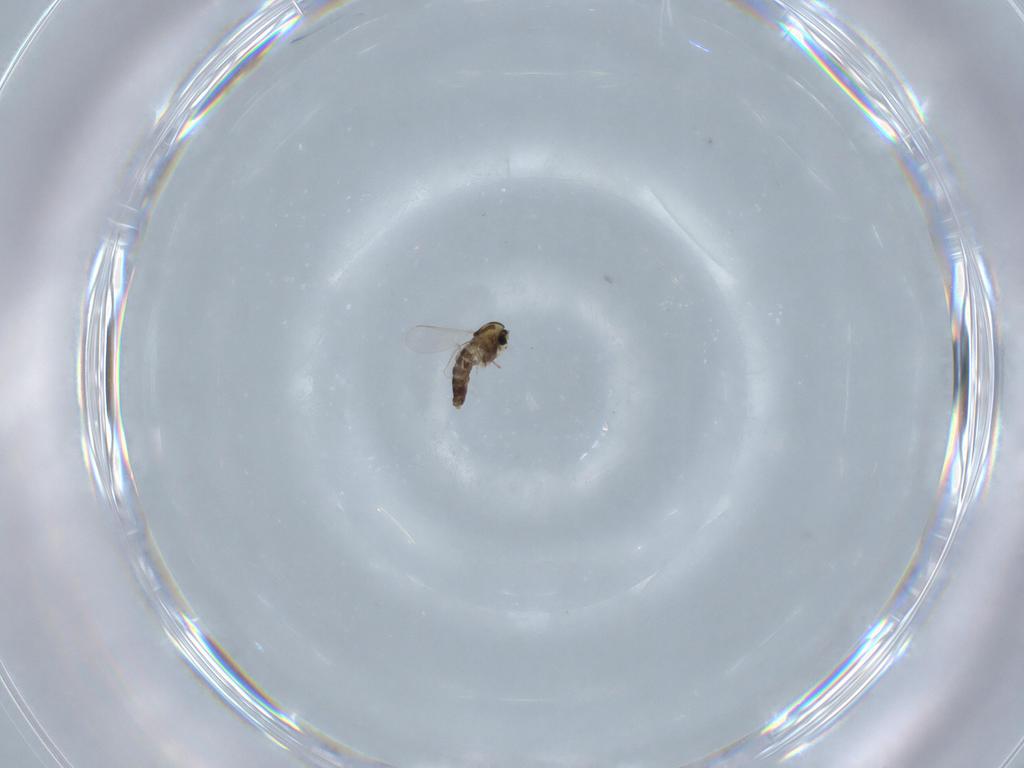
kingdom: Animalia
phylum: Arthropoda
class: Insecta
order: Diptera
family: Chironomidae
